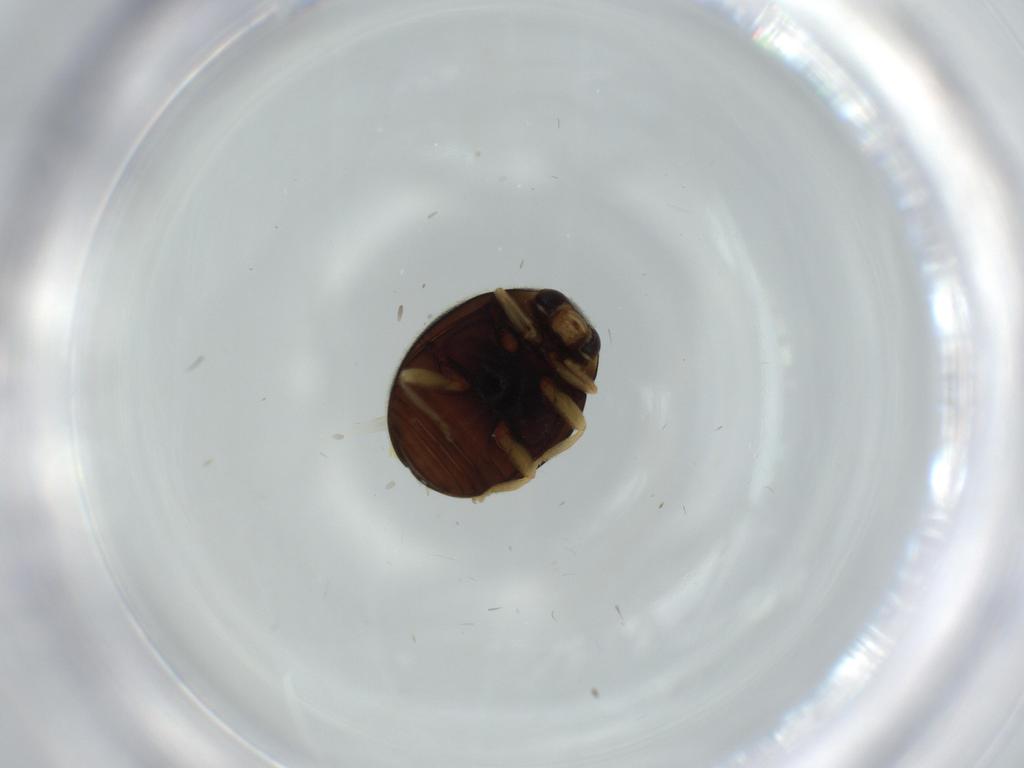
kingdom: Animalia
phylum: Arthropoda
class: Insecta
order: Coleoptera
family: Coccinellidae
